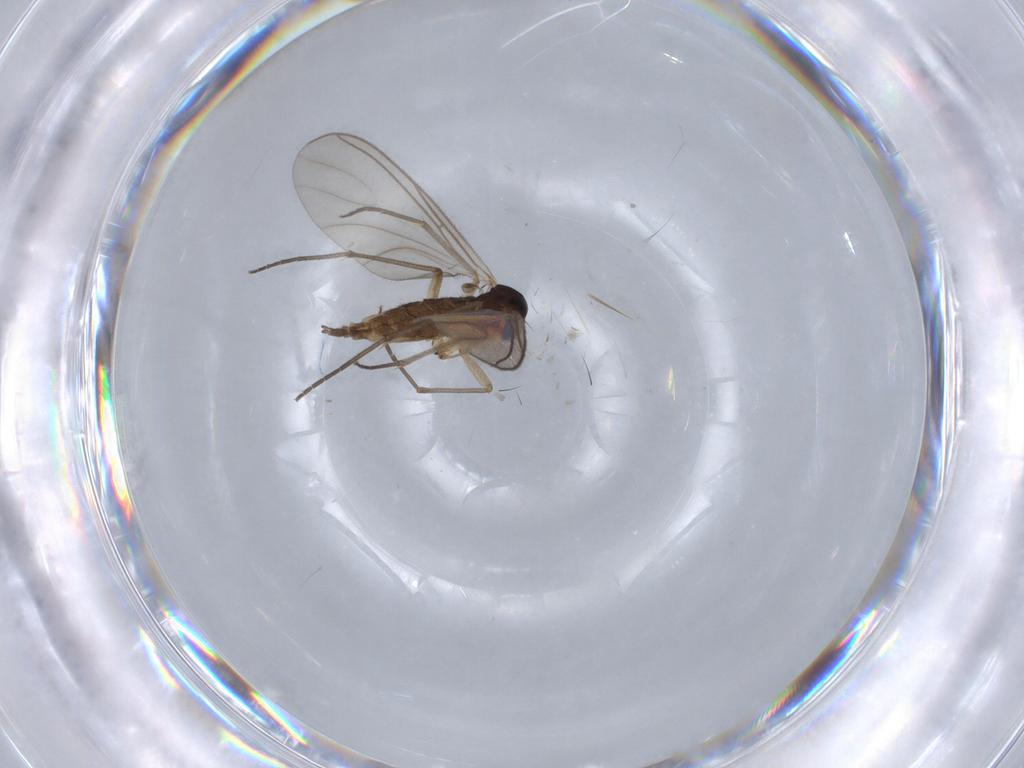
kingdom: Animalia
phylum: Arthropoda
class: Insecta
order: Diptera
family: Sciaridae
